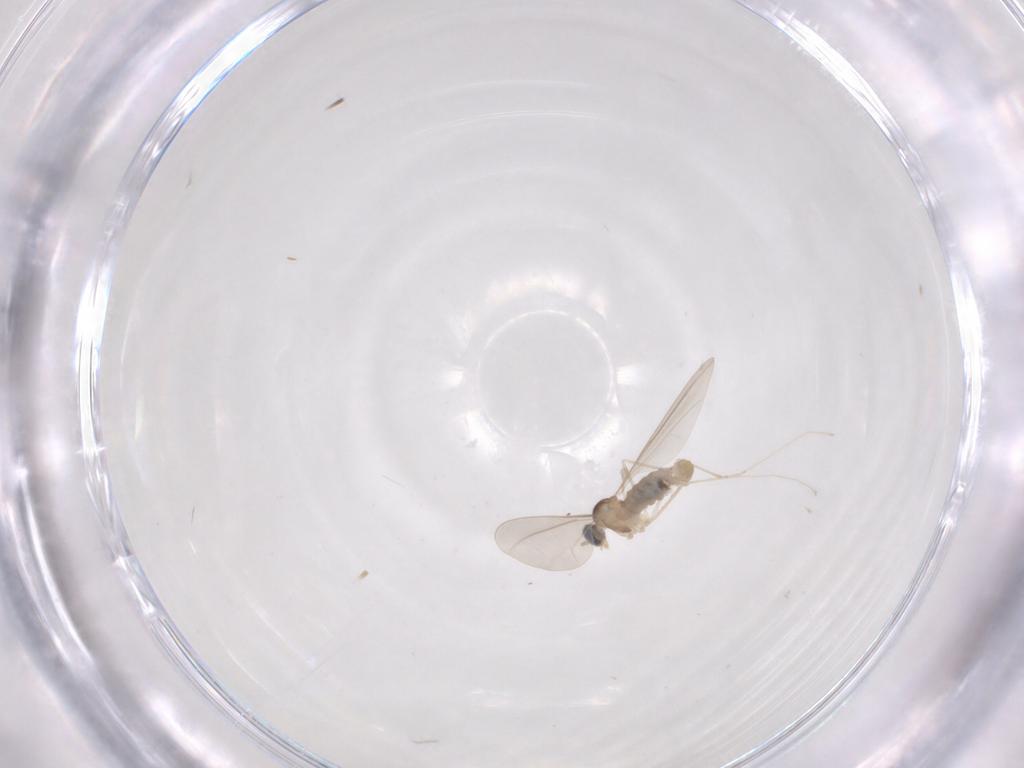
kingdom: Animalia
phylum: Arthropoda
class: Insecta
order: Diptera
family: Cecidomyiidae
